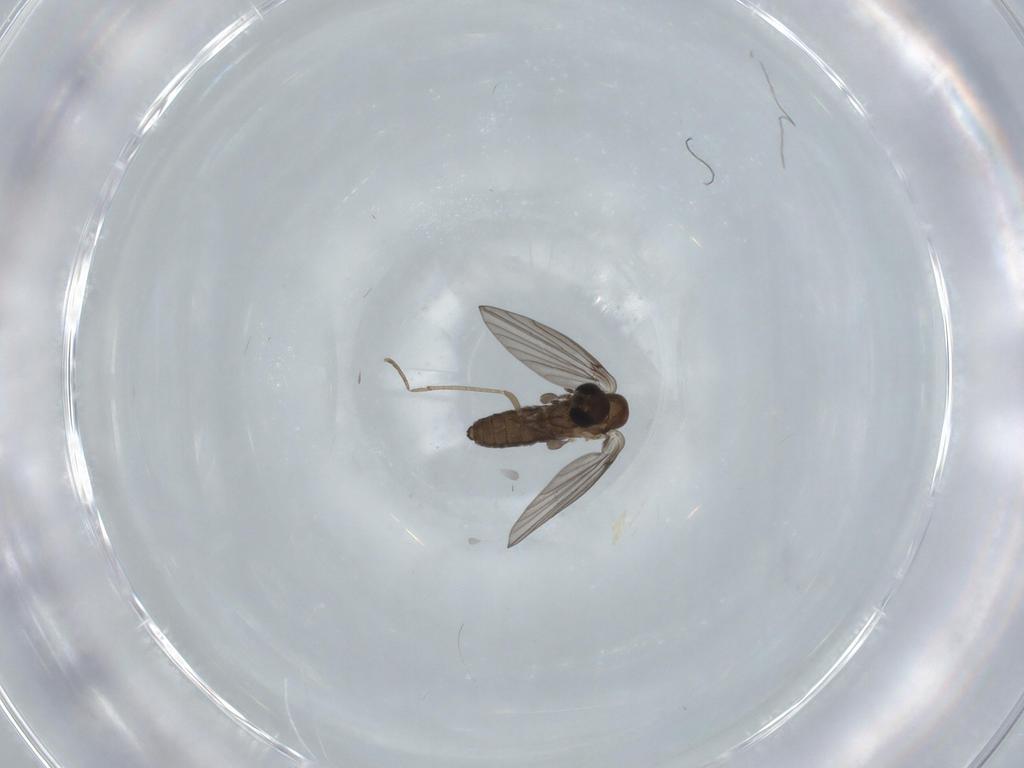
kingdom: Animalia
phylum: Arthropoda
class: Insecta
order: Diptera
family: Psychodidae
